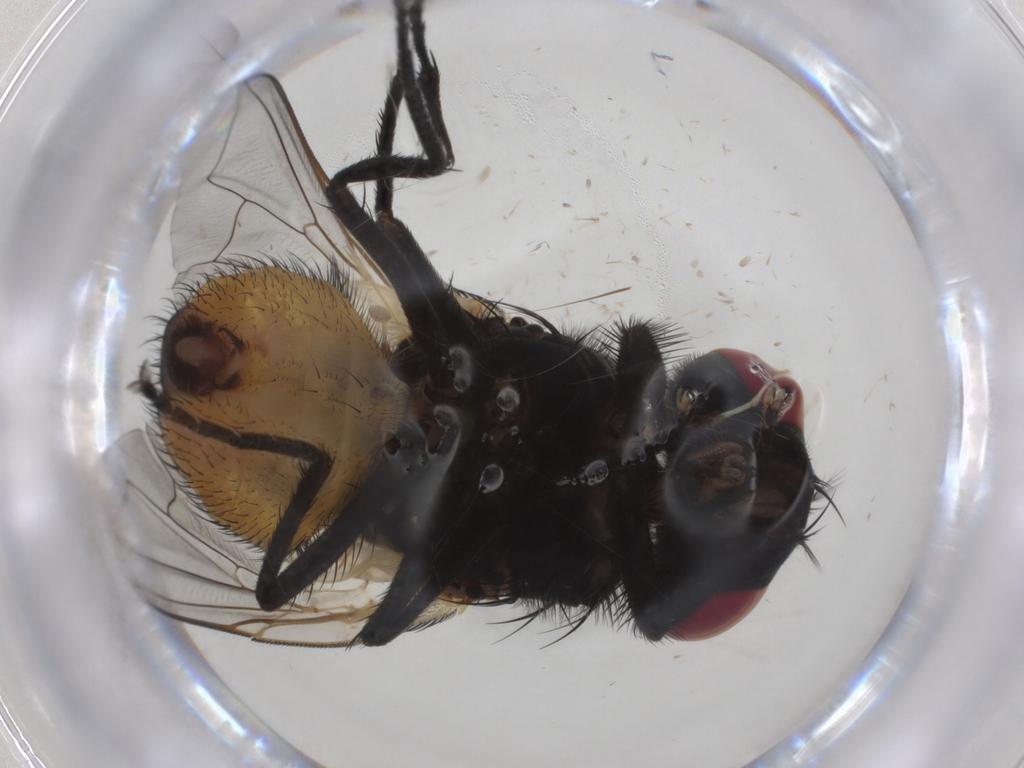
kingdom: Animalia
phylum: Arthropoda
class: Insecta
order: Diptera
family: Muscidae
